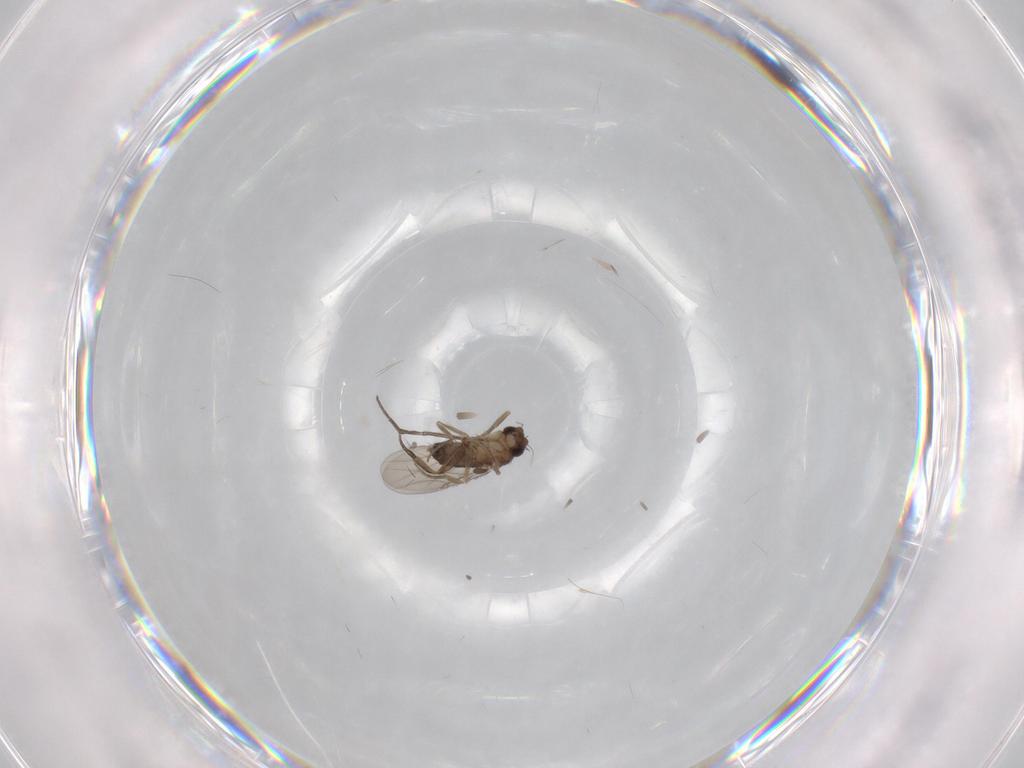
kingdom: Animalia
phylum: Arthropoda
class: Insecta
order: Diptera
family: Phoridae
